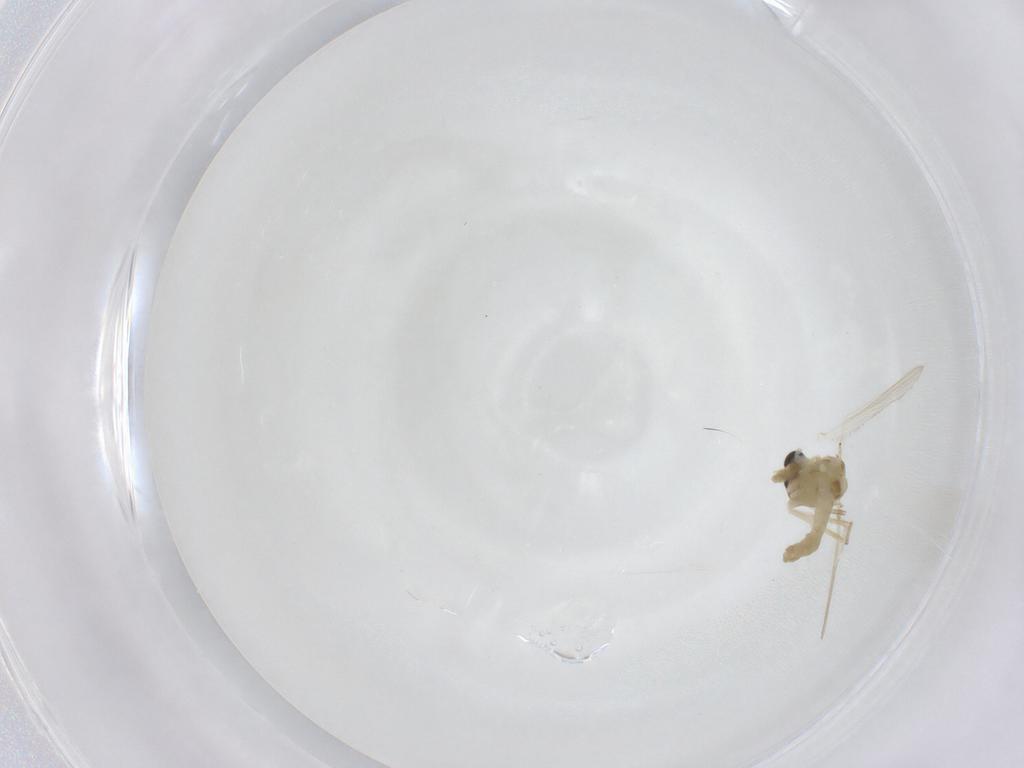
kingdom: Animalia
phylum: Arthropoda
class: Insecta
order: Diptera
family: Chironomidae
